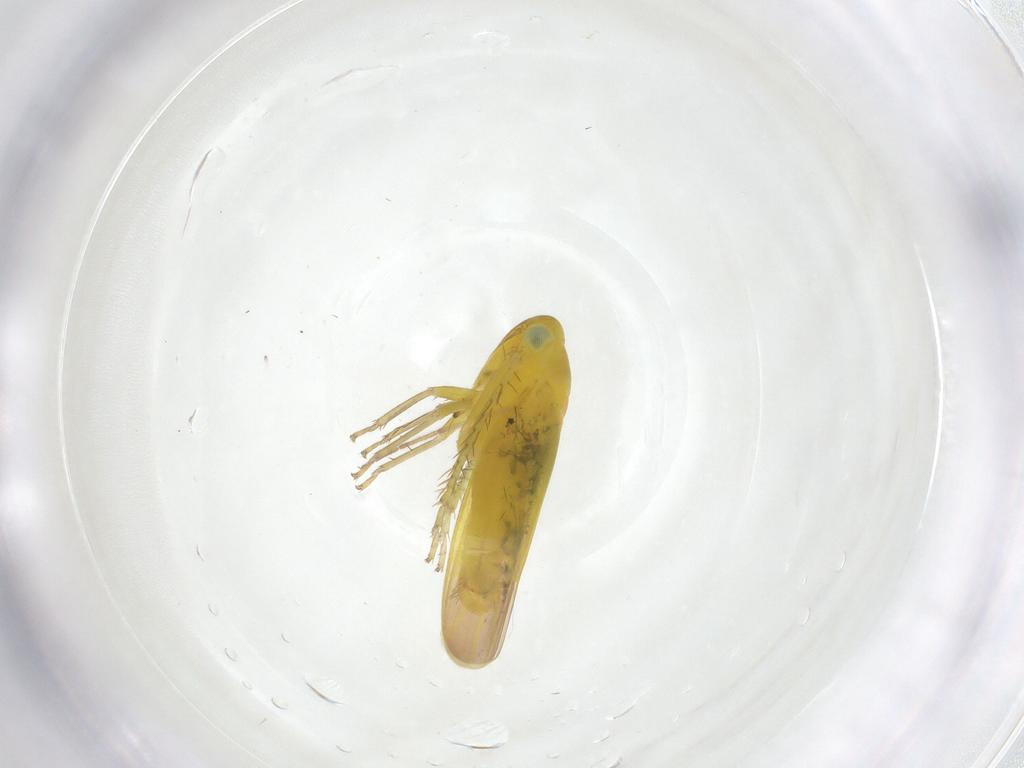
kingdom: Animalia
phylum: Arthropoda
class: Insecta
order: Hemiptera
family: Cicadellidae
